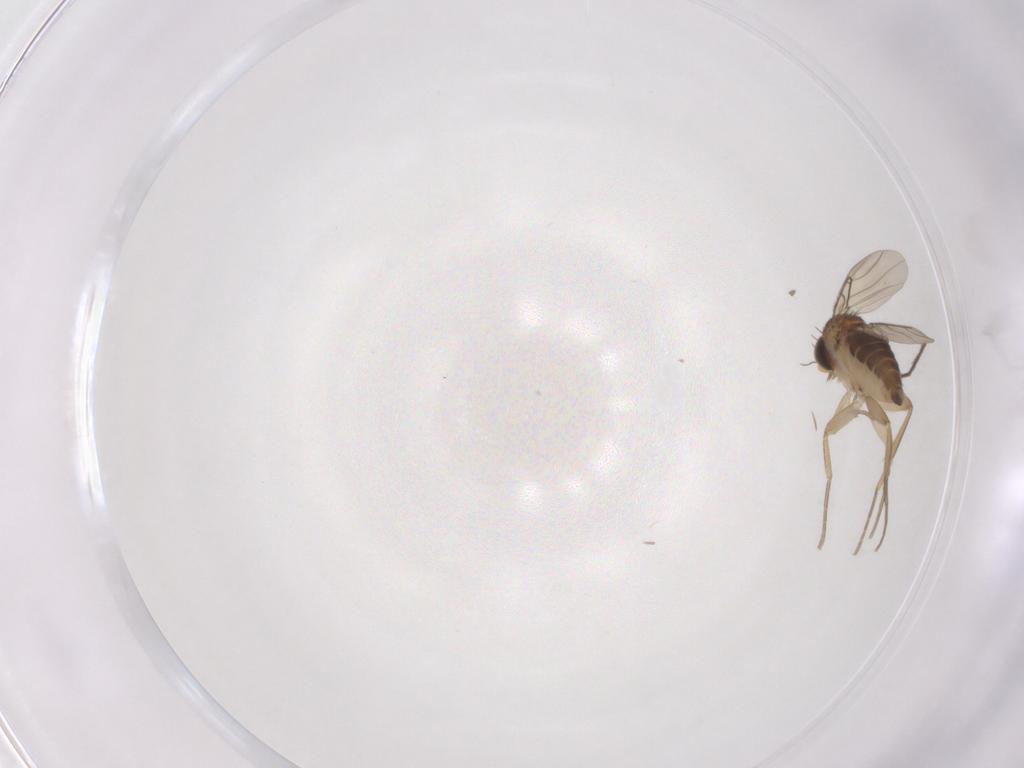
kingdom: Animalia
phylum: Arthropoda
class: Insecta
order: Diptera
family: Phoridae
